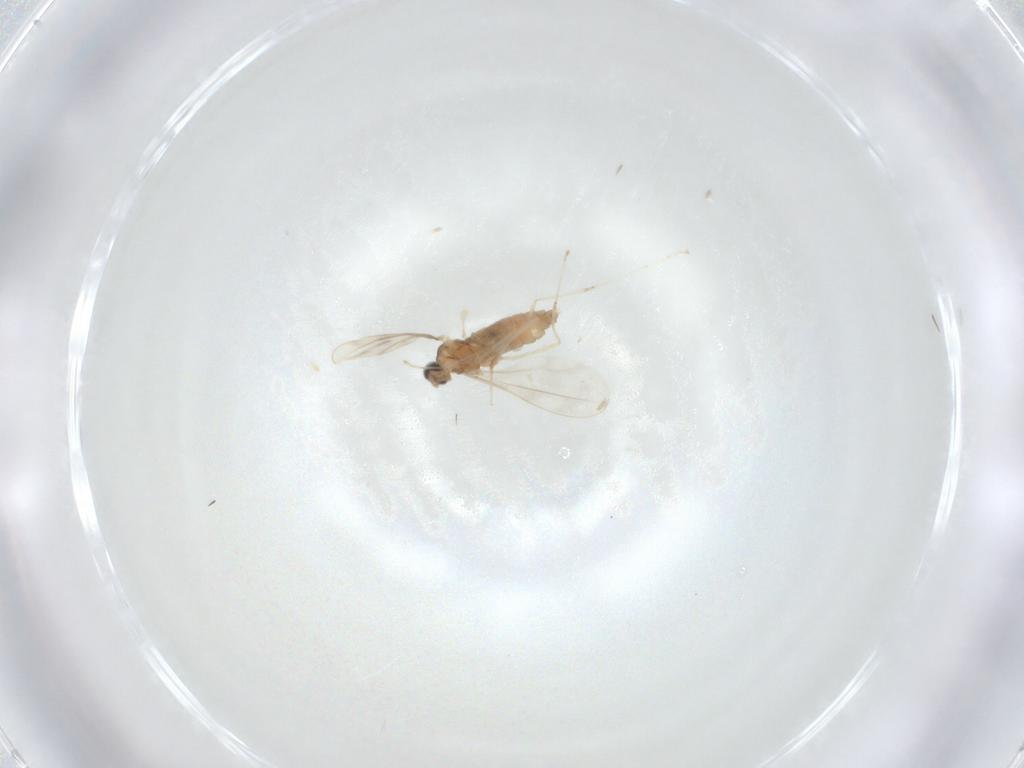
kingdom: Animalia
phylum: Arthropoda
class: Insecta
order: Diptera
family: Cecidomyiidae
